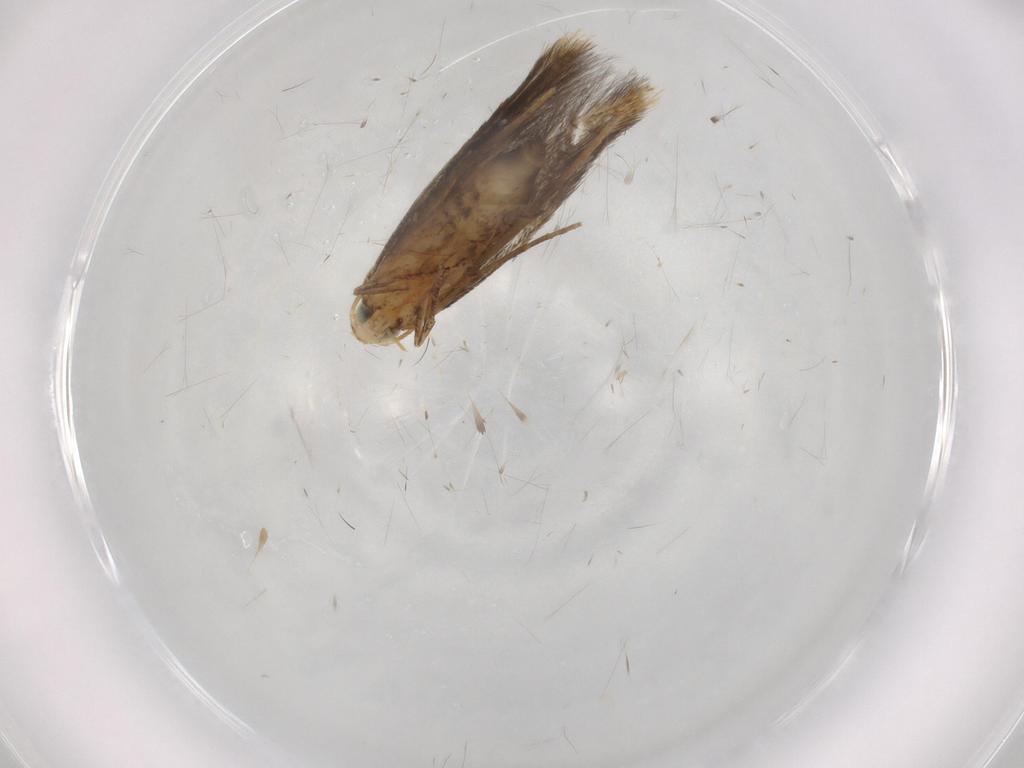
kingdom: Animalia
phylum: Arthropoda
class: Insecta
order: Lepidoptera
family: Tischeriidae
